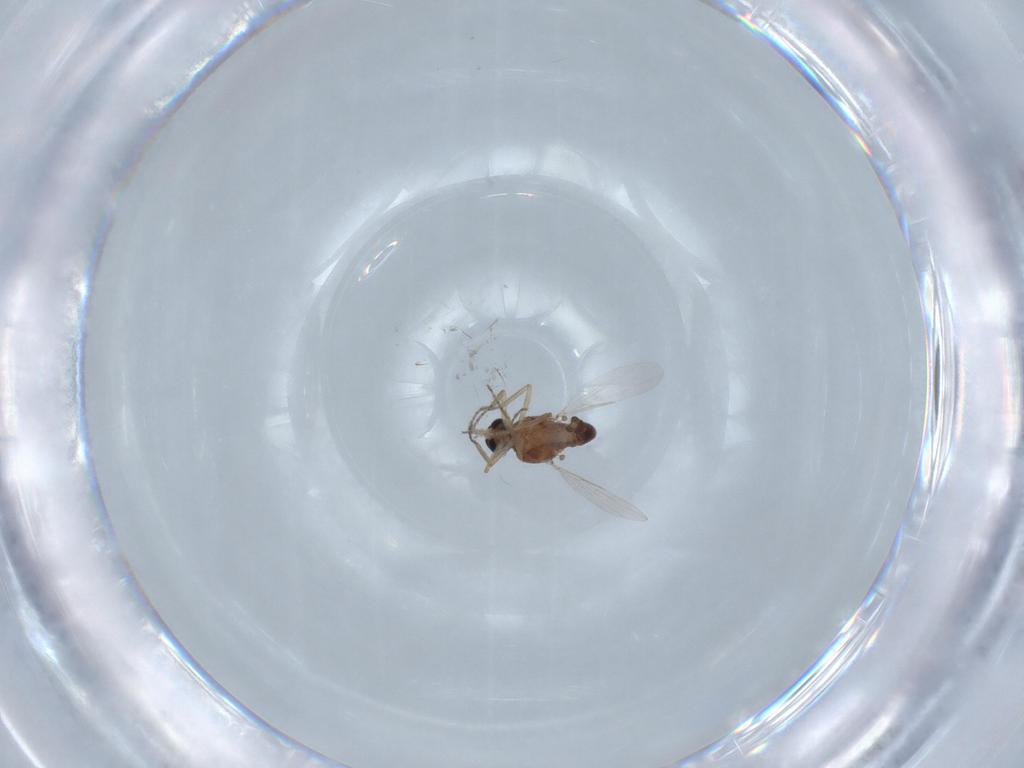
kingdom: Animalia
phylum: Arthropoda
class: Insecta
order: Diptera
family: Ceratopogonidae
